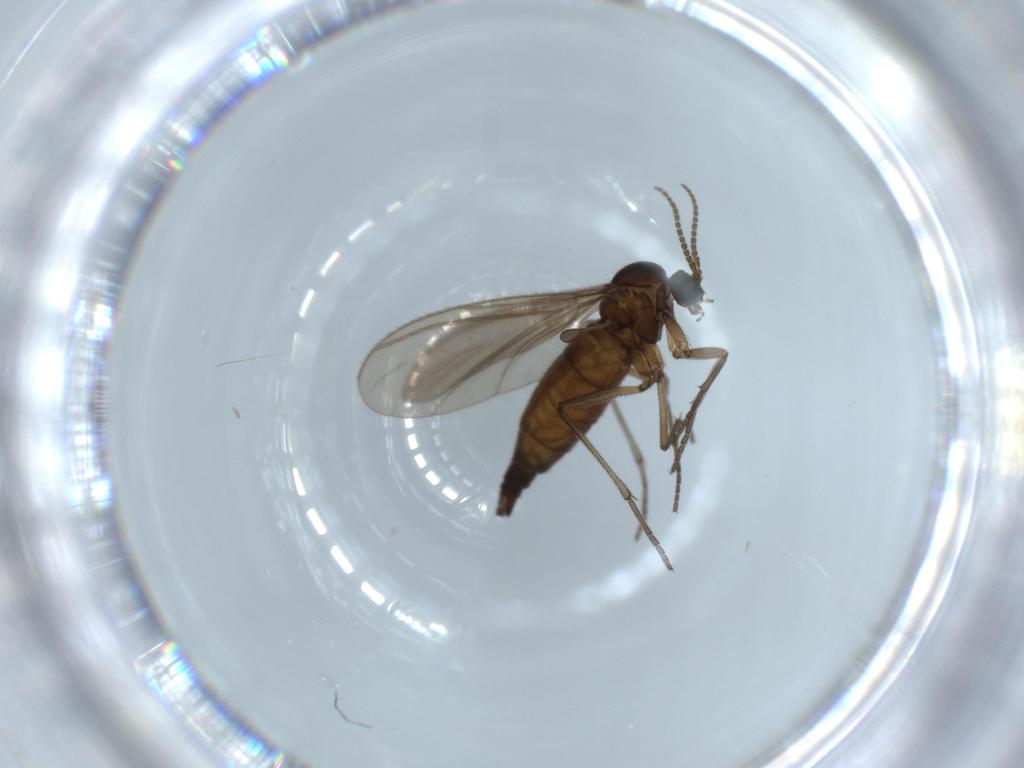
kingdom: Animalia
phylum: Arthropoda
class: Insecta
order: Diptera
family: Sciaridae
